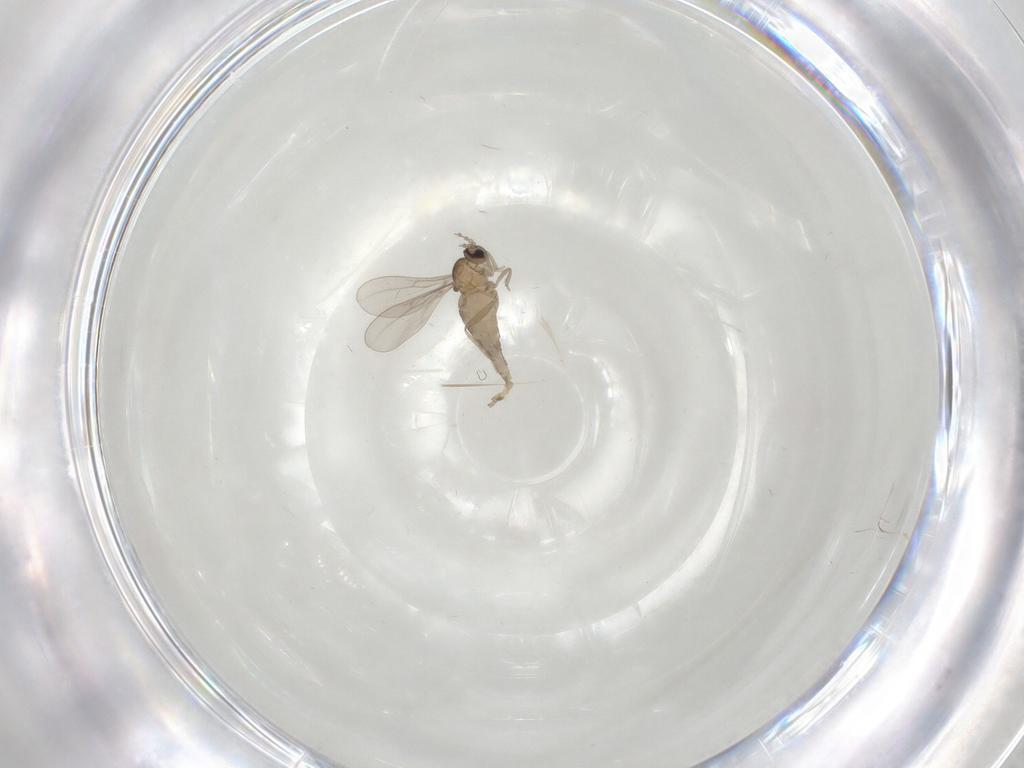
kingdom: Animalia
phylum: Arthropoda
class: Insecta
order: Diptera
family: Cecidomyiidae
